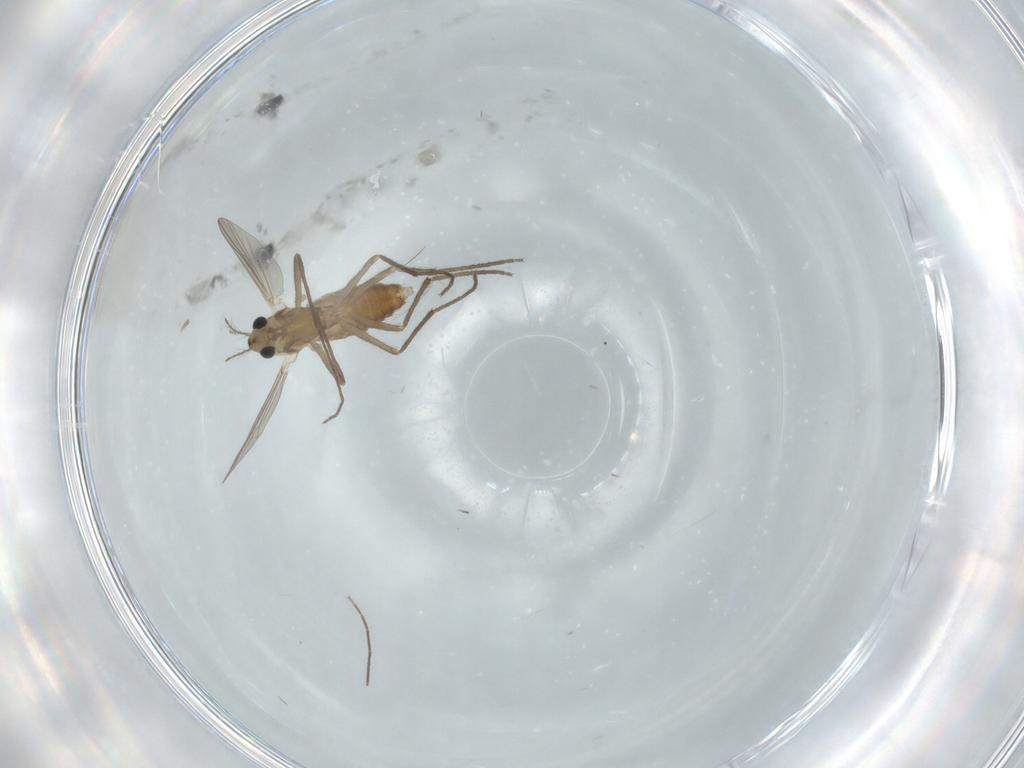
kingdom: Animalia
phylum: Arthropoda
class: Insecta
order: Diptera
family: Chironomidae
